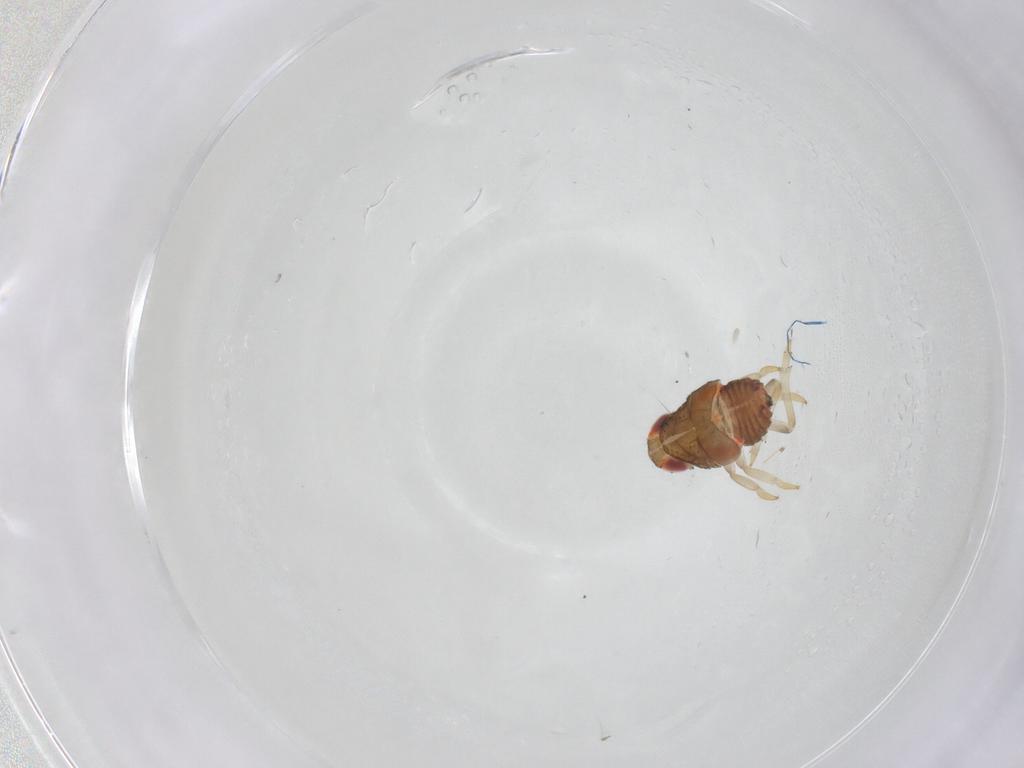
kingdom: Animalia
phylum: Arthropoda
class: Insecta
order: Hemiptera
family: Issidae
